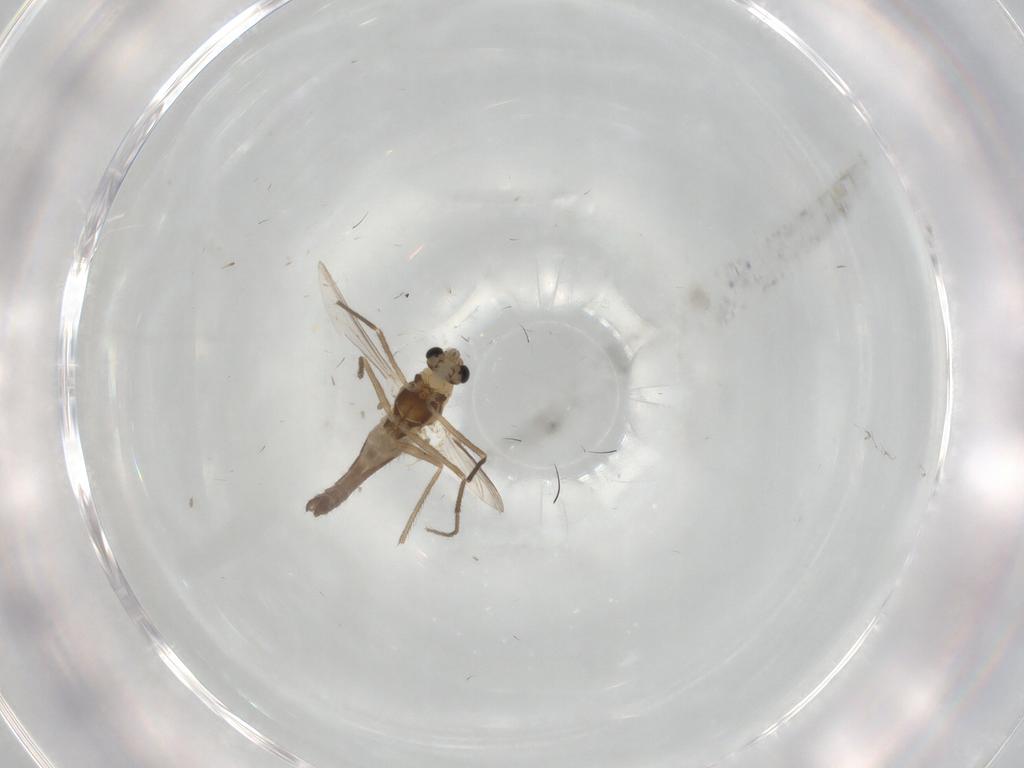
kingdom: Animalia
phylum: Arthropoda
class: Insecta
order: Diptera
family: Chironomidae
